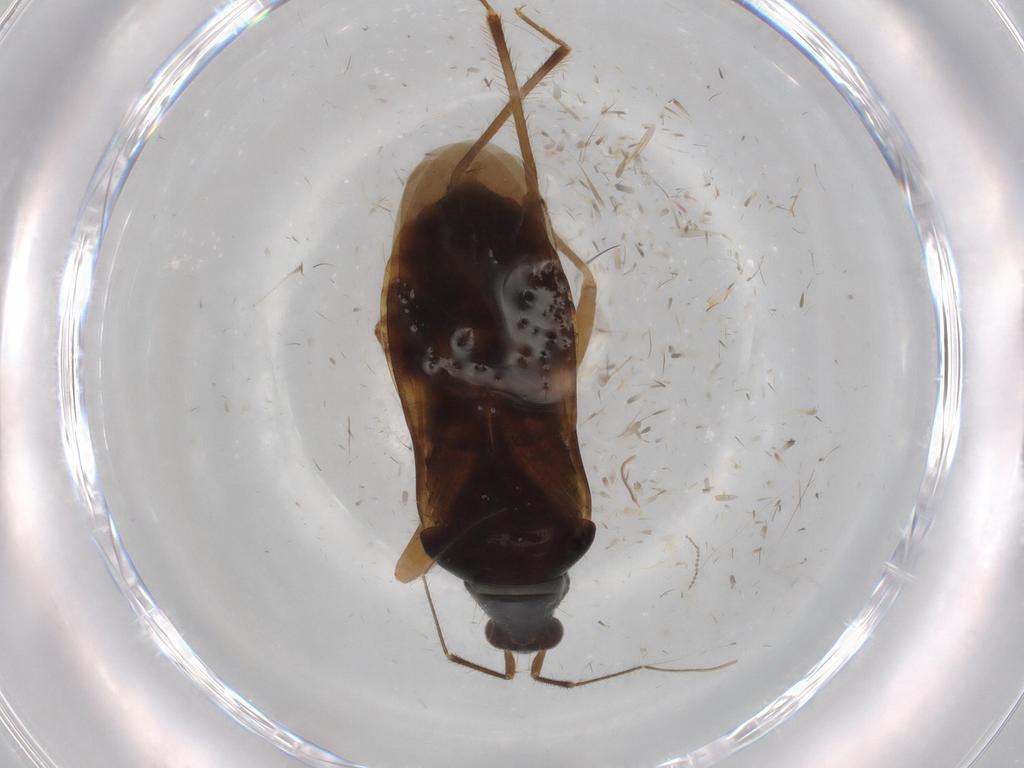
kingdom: Animalia
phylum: Arthropoda
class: Insecta
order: Hemiptera
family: Nabidae
